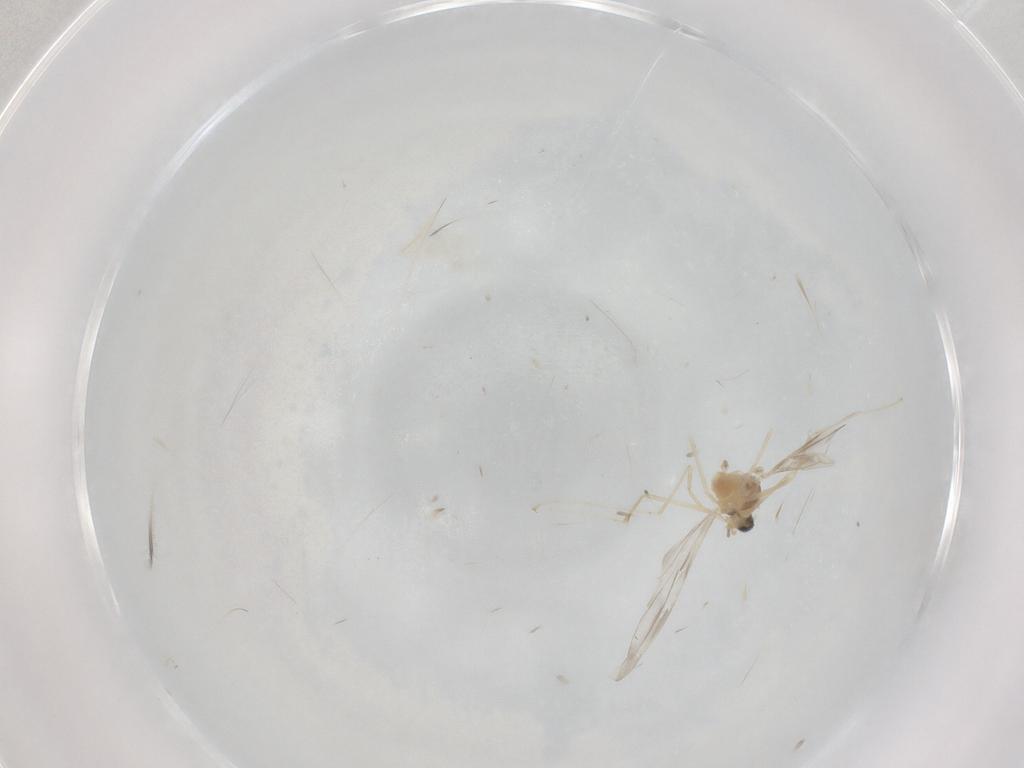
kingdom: Animalia
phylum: Arthropoda
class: Insecta
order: Diptera
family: Cecidomyiidae
